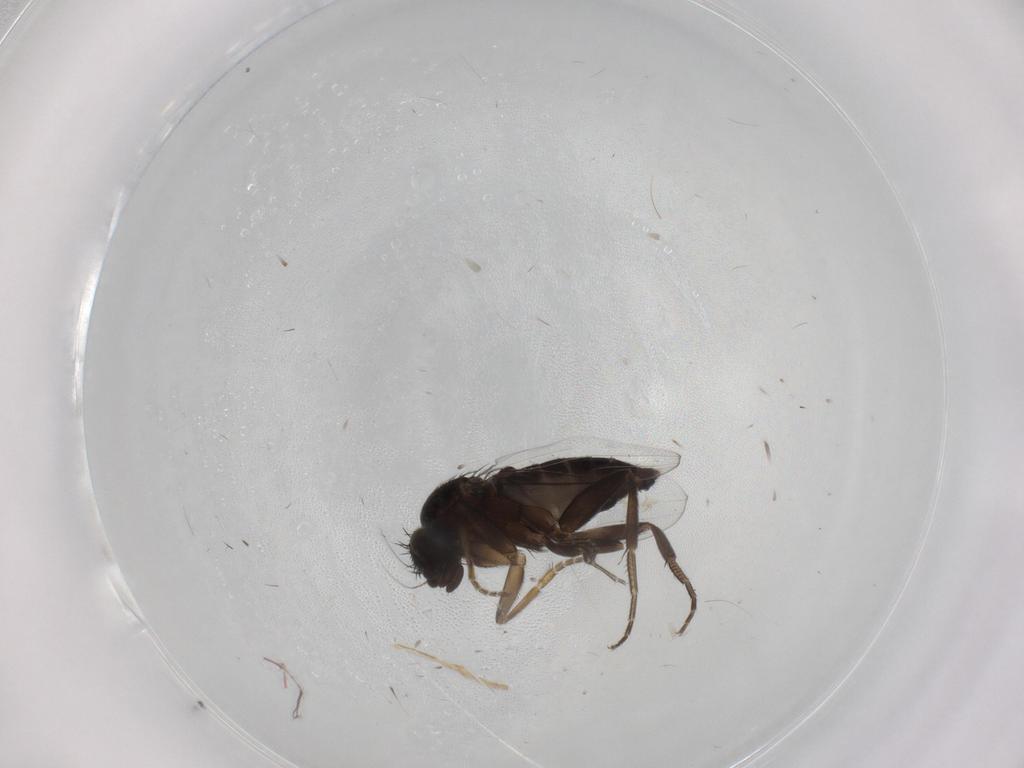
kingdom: Animalia
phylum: Arthropoda
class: Insecta
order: Diptera
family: Phoridae
